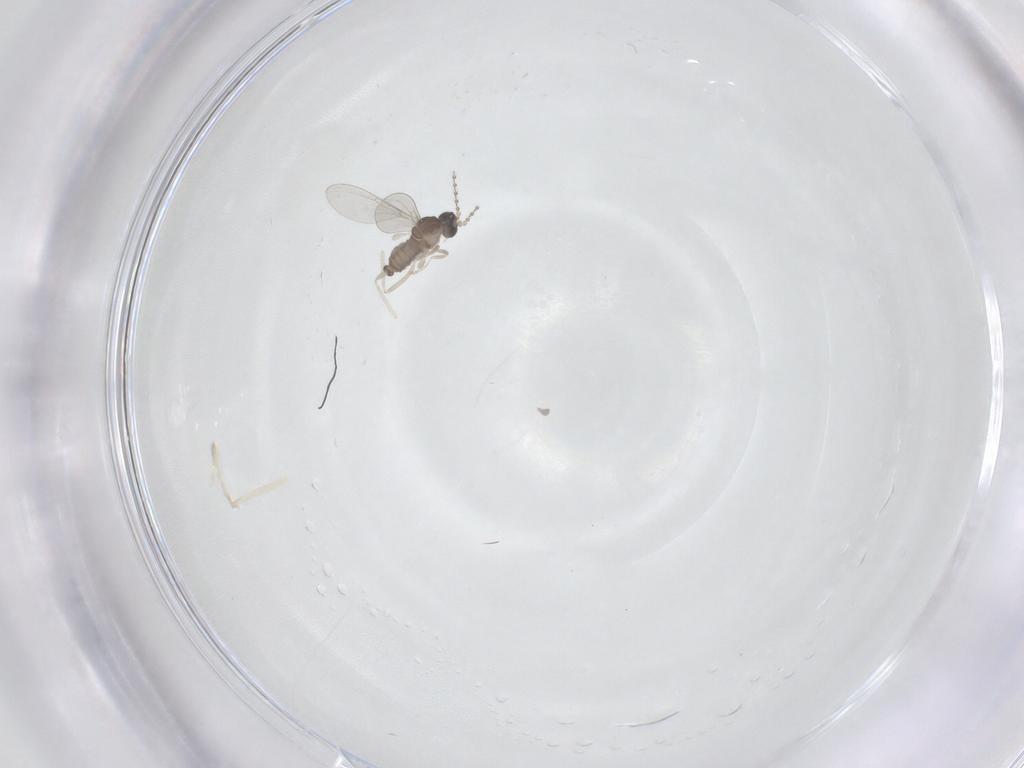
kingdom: Animalia
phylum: Arthropoda
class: Insecta
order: Diptera
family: Cecidomyiidae
